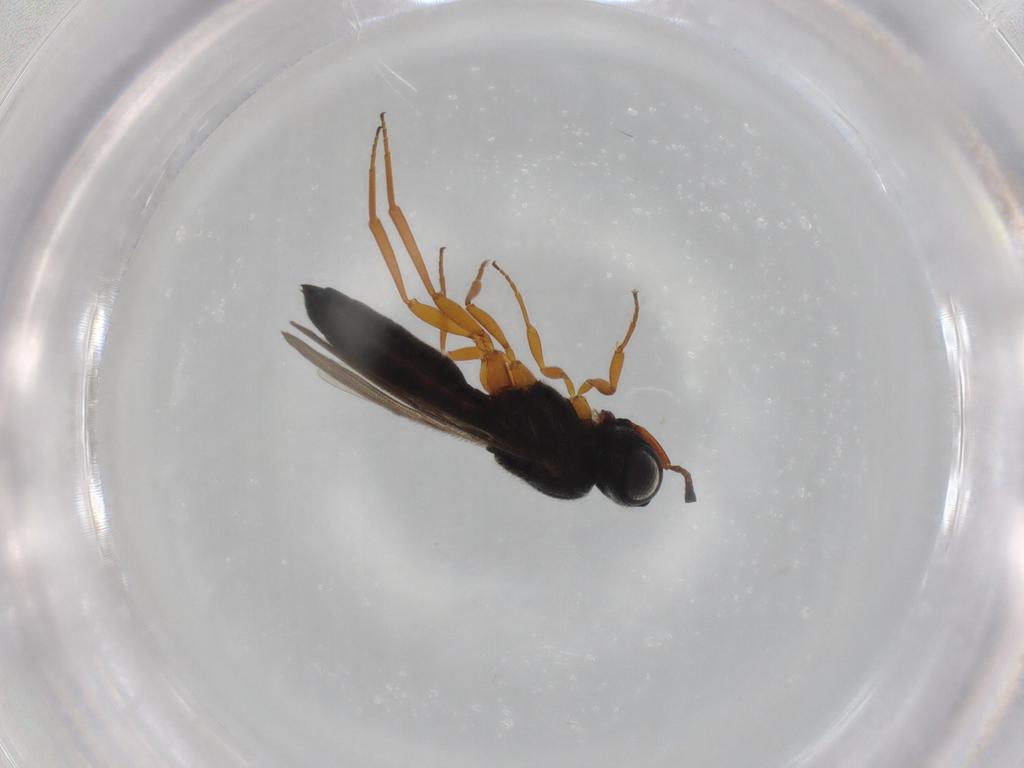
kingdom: Animalia
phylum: Arthropoda
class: Insecta
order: Hymenoptera
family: Scelionidae
